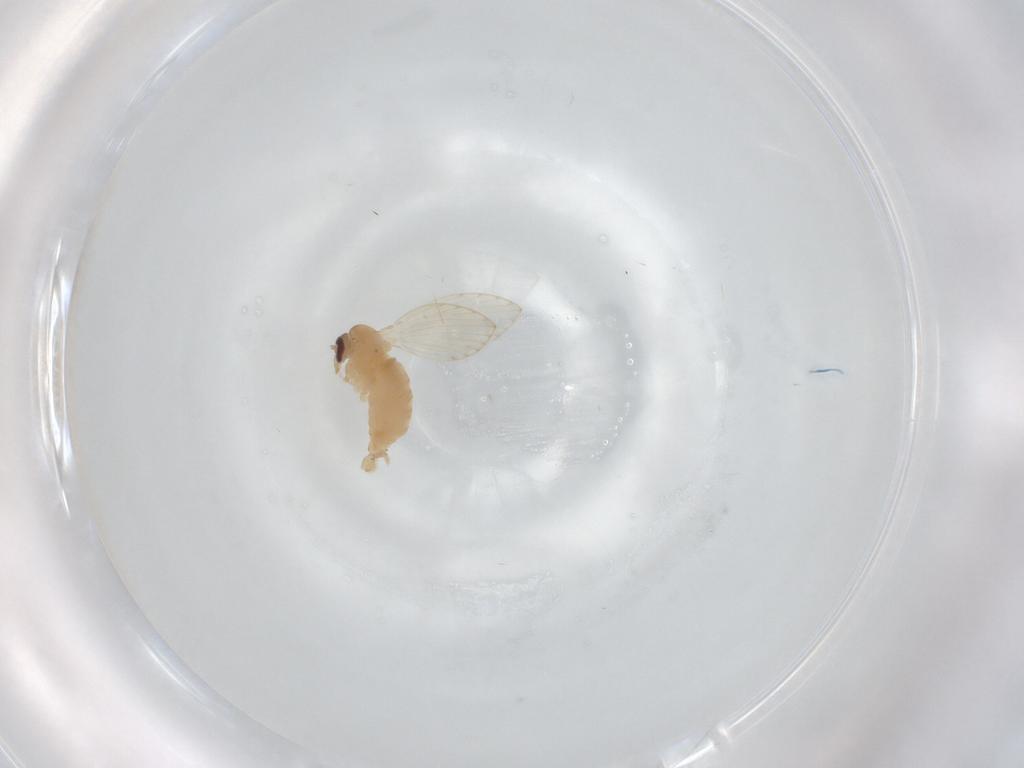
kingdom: Animalia
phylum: Arthropoda
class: Insecta
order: Diptera
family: Psychodidae
